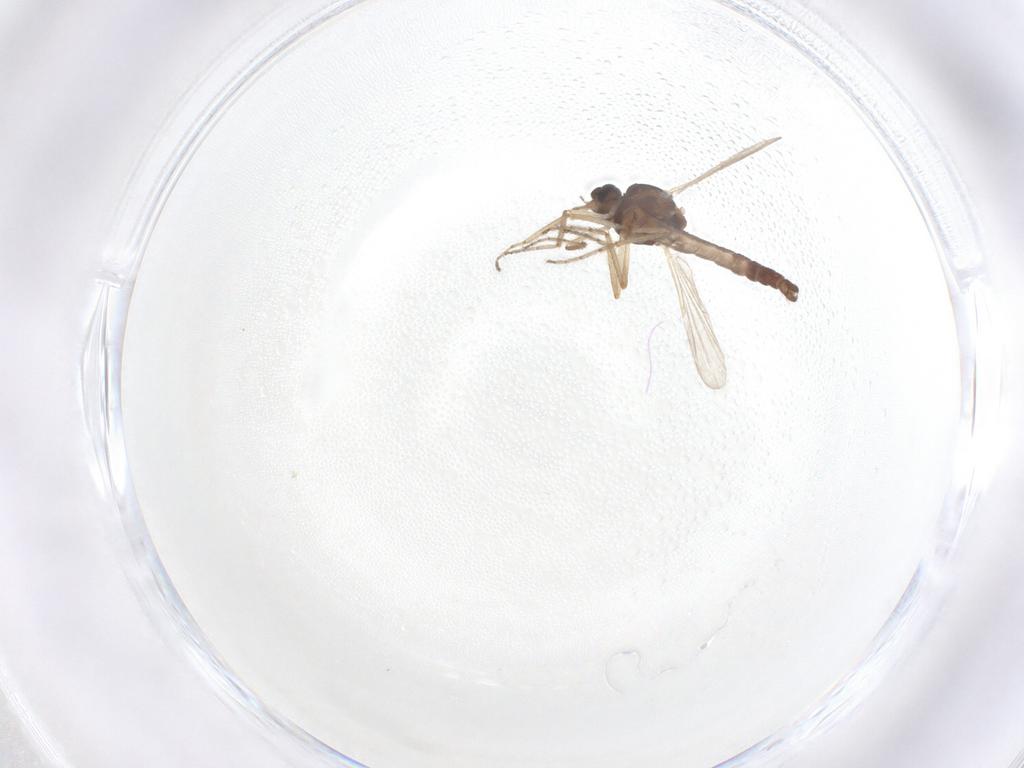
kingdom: Animalia
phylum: Arthropoda
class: Insecta
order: Diptera
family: Ceratopogonidae
